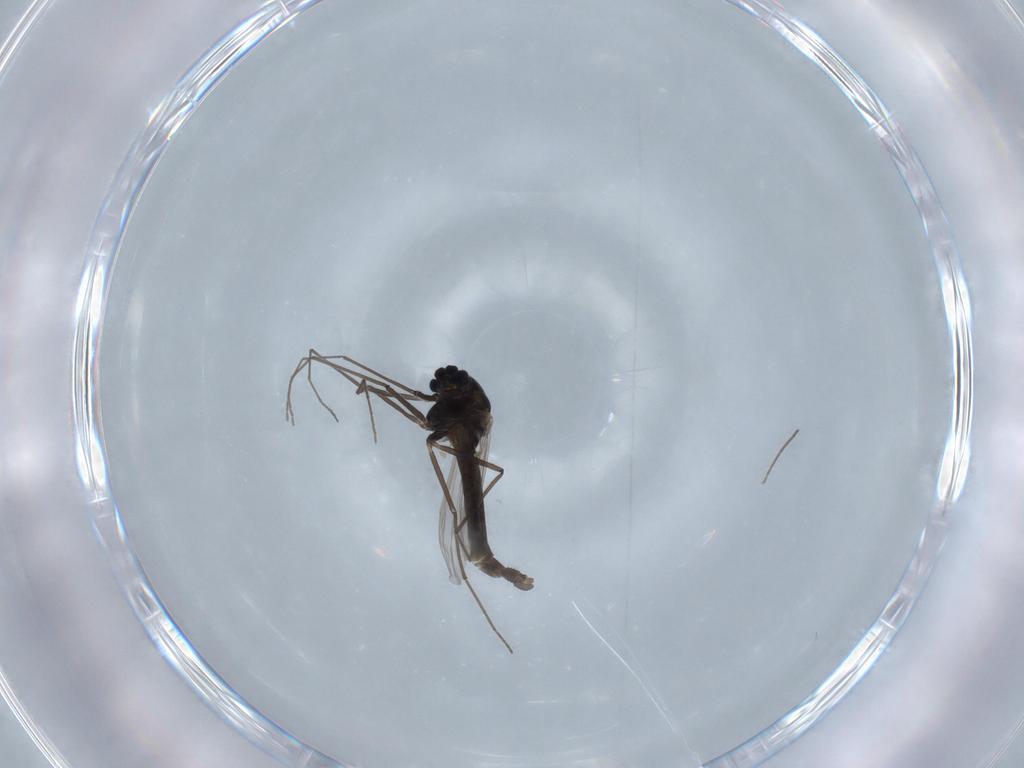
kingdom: Animalia
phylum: Arthropoda
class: Insecta
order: Diptera
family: Chironomidae
